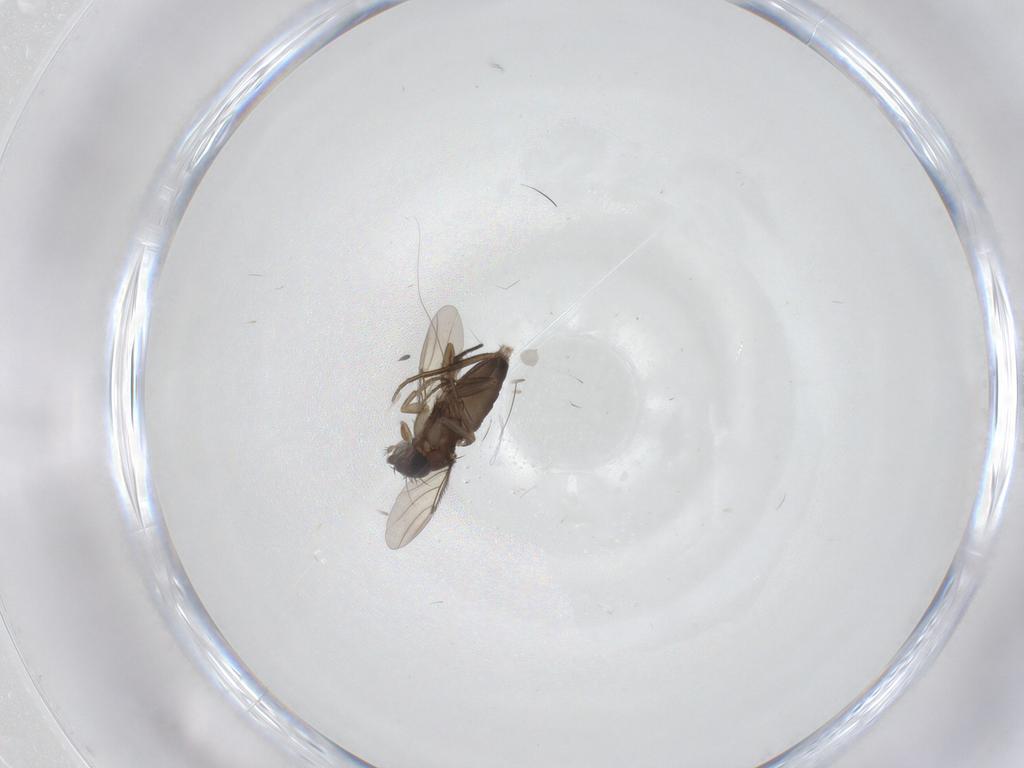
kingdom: Animalia
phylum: Arthropoda
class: Insecta
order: Diptera
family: Phoridae
